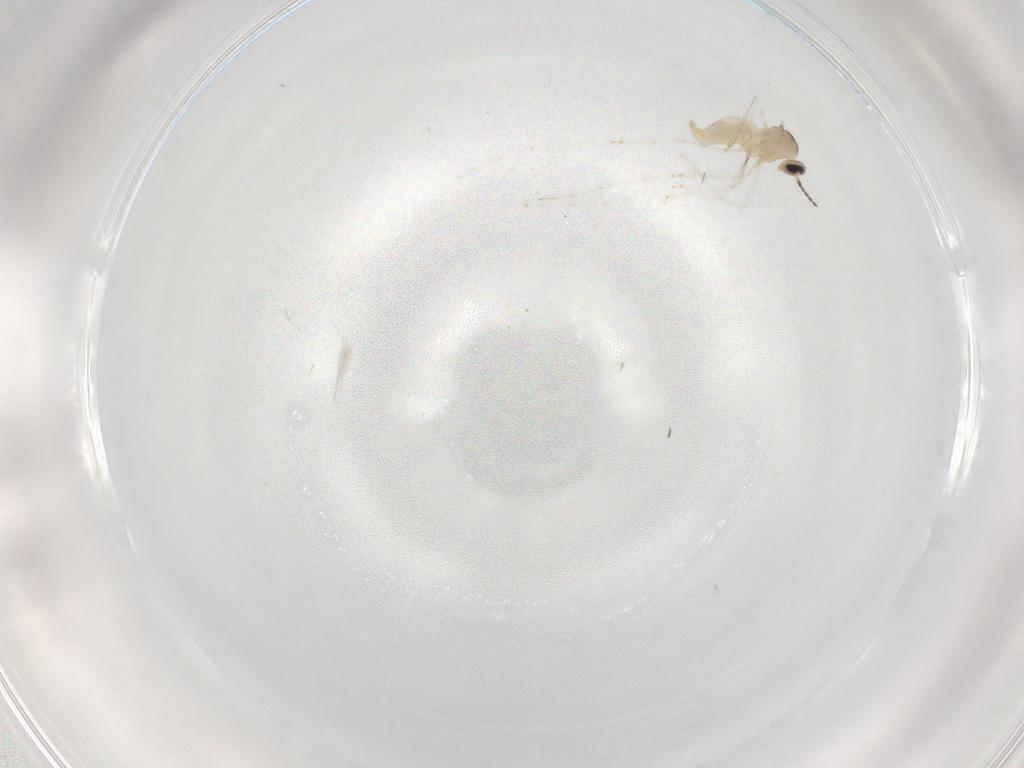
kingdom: Animalia
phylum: Arthropoda
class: Insecta
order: Diptera
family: Cecidomyiidae
